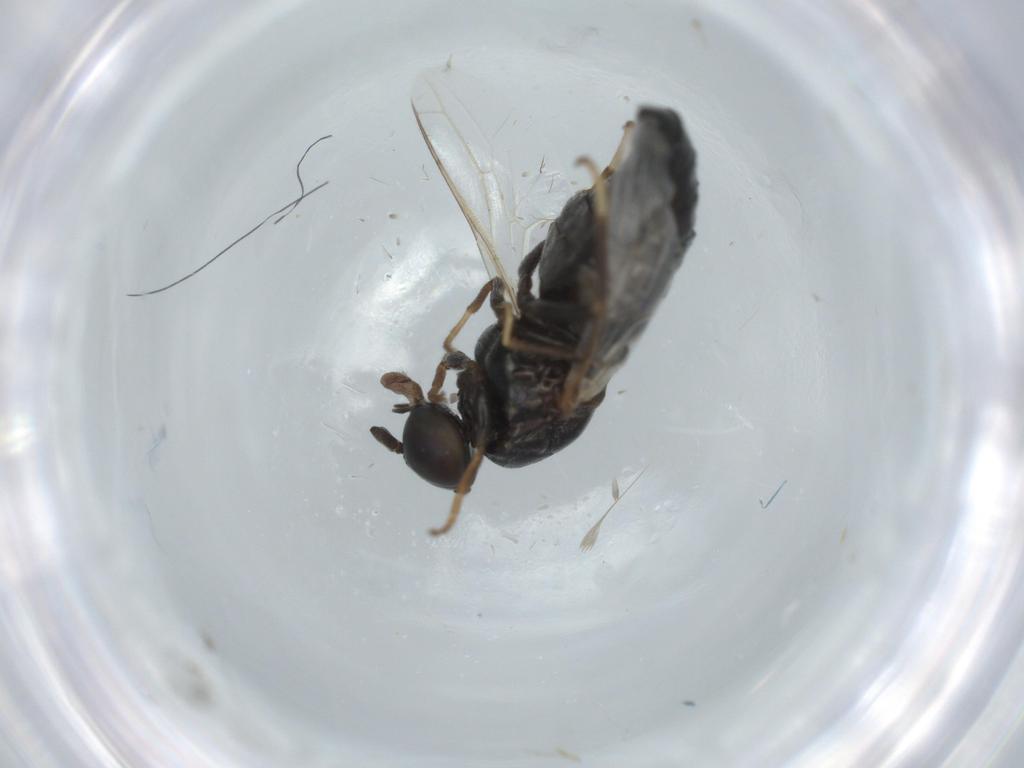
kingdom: Animalia
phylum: Arthropoda
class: Insecta
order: Diptera
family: Scenopinidae
